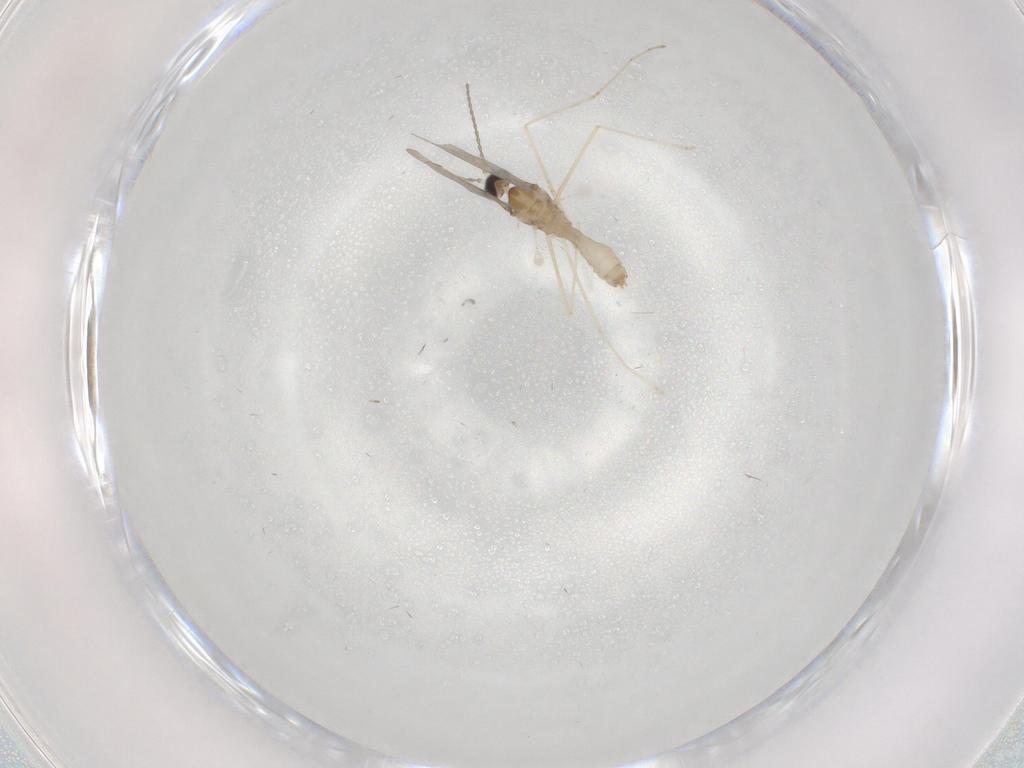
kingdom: Animalia
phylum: Arthropoda
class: Insecta
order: Diptera
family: Cecidomyiidae
